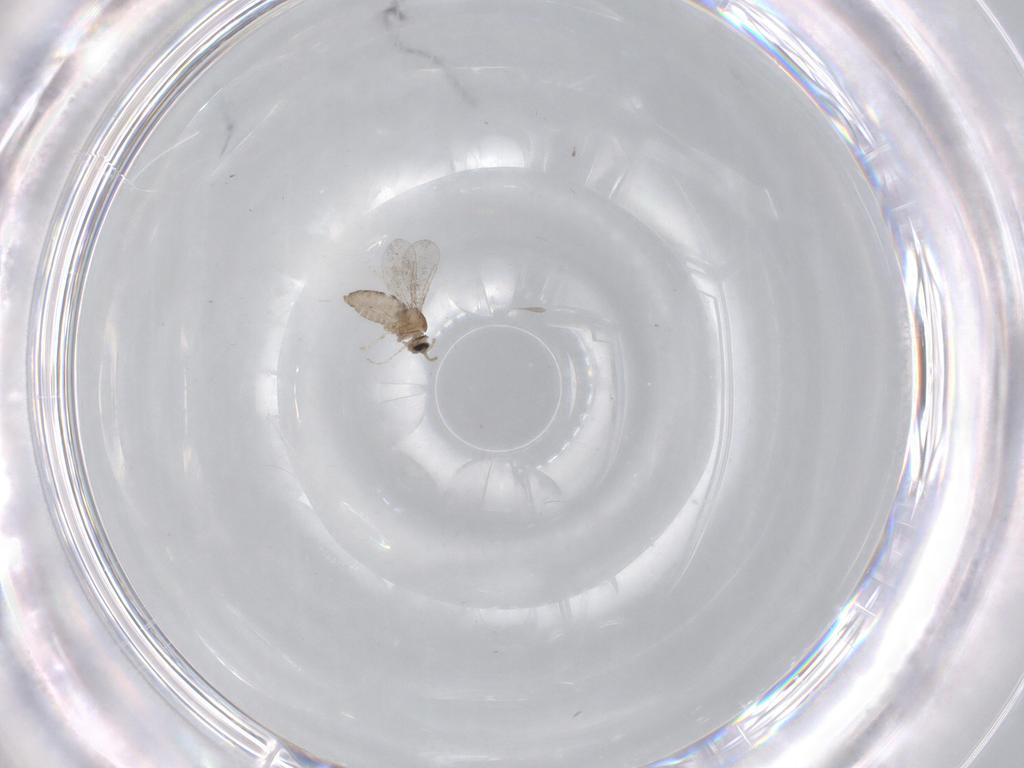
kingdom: Animalia
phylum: Arthropoda
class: Insecta
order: Diptera
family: Cecidomyiidae
